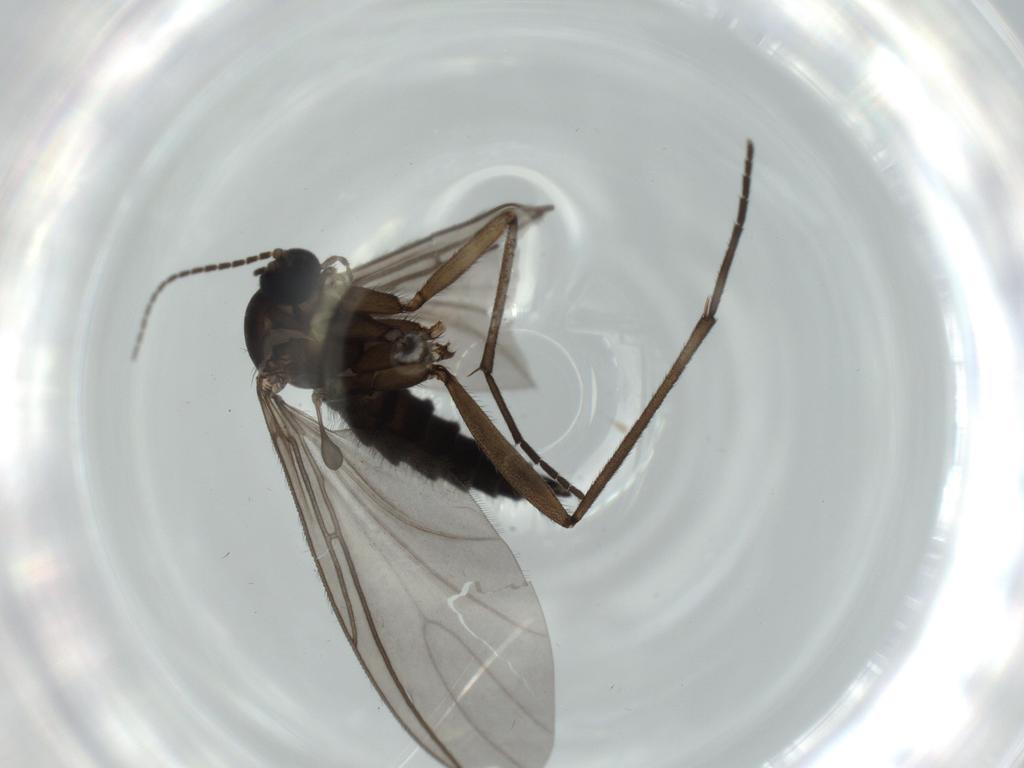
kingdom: Animalia
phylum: Arthropoda
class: Insecta
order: Diptera
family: Sciaridae
